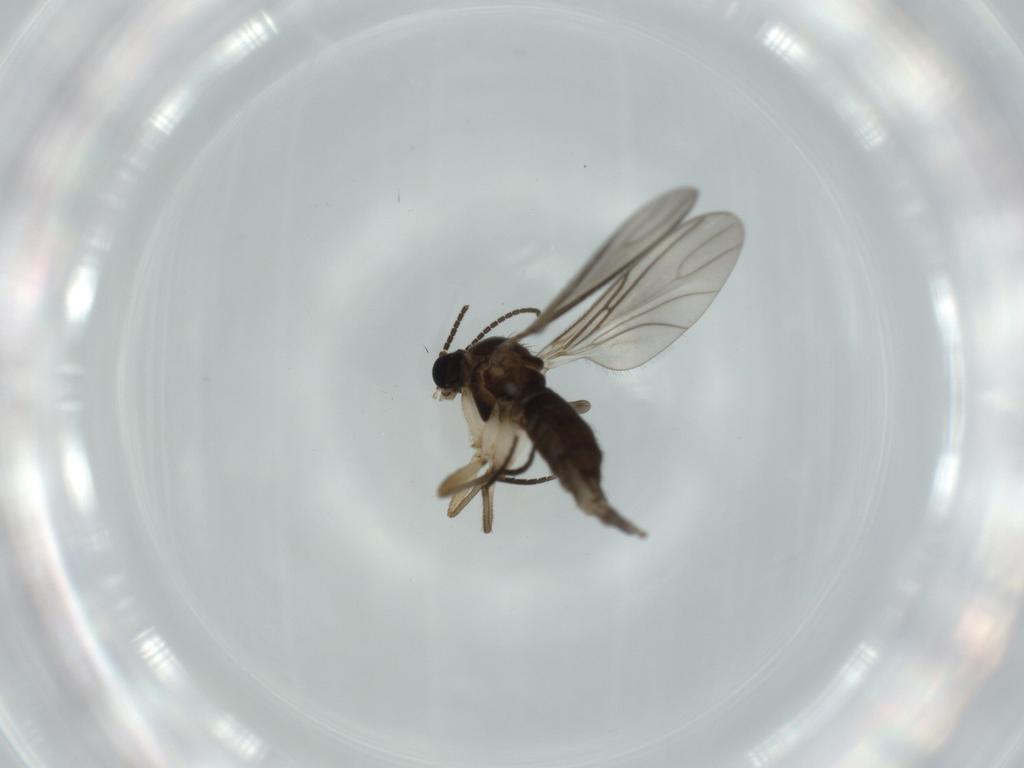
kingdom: Animalia
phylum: Arthropoda
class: Insecta
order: Diptera
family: Sciaridae
